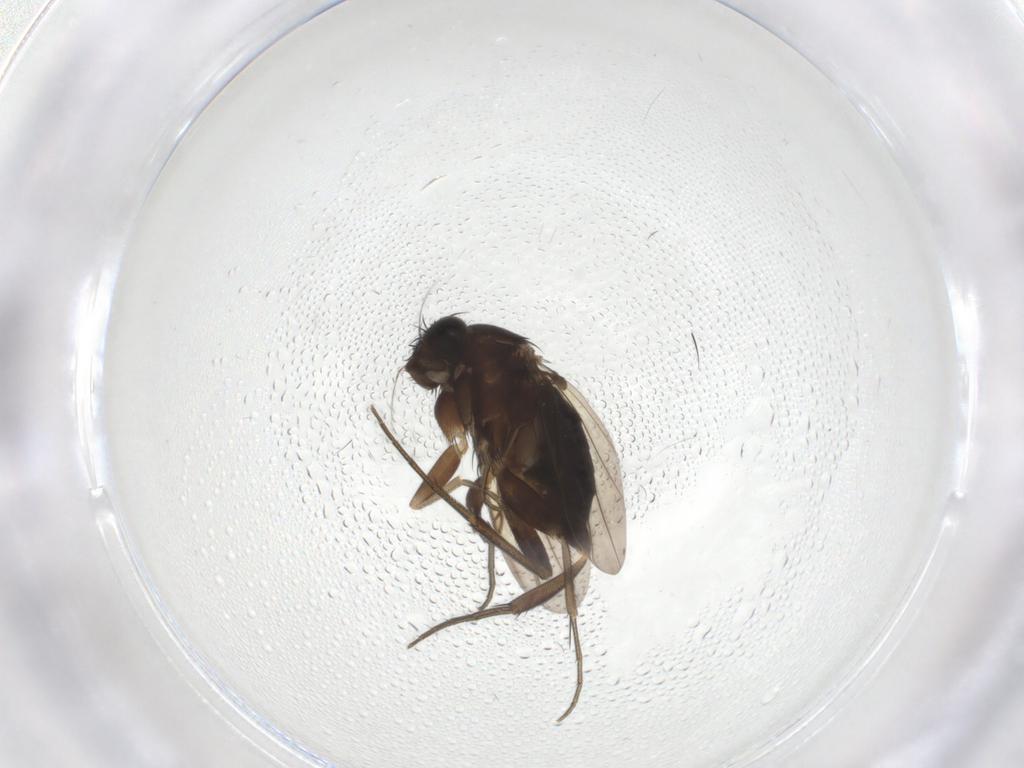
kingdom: Animalia
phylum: Arthropoda
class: Insecta
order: Diptera
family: Phoridae
